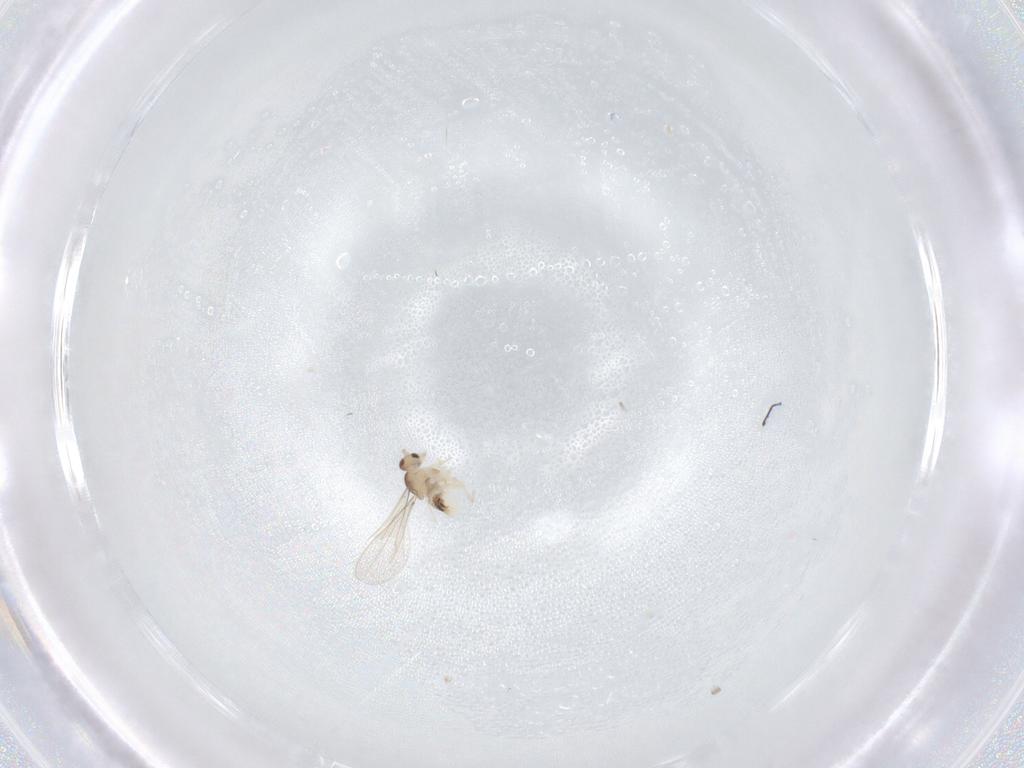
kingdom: Animalia
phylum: Arthropoda
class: Insecta
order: Diptera
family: Cecidomyiidae
